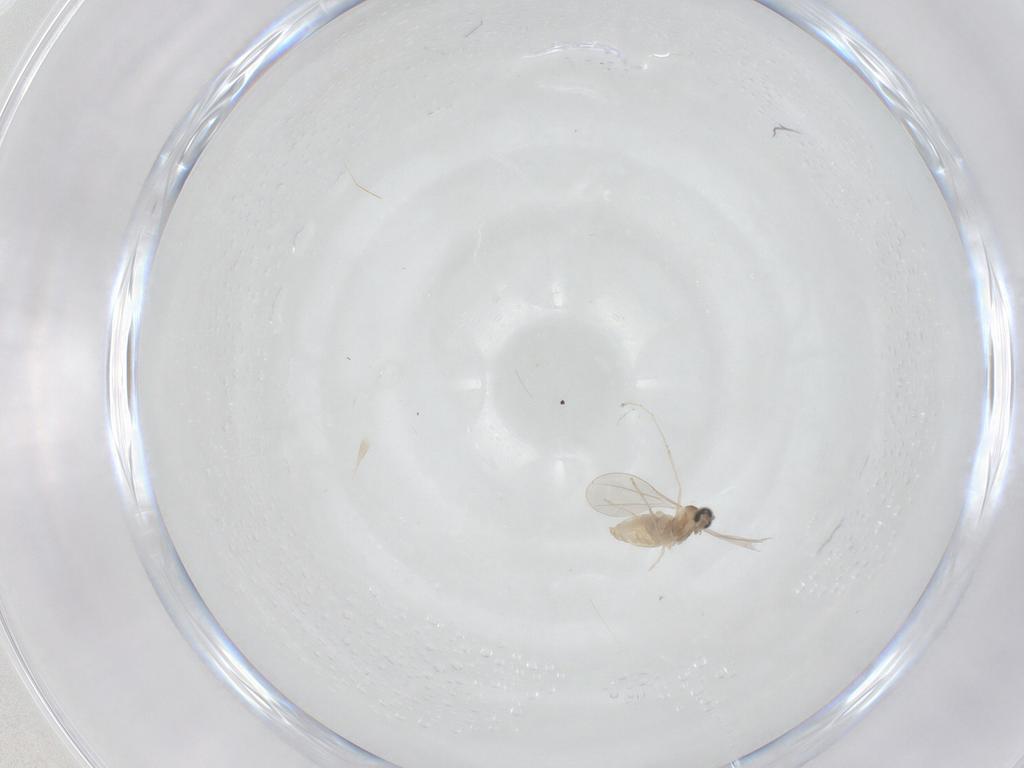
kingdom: Animalia
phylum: Arthropoda
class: Insecta
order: Diptera
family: Cecidomyiidae
